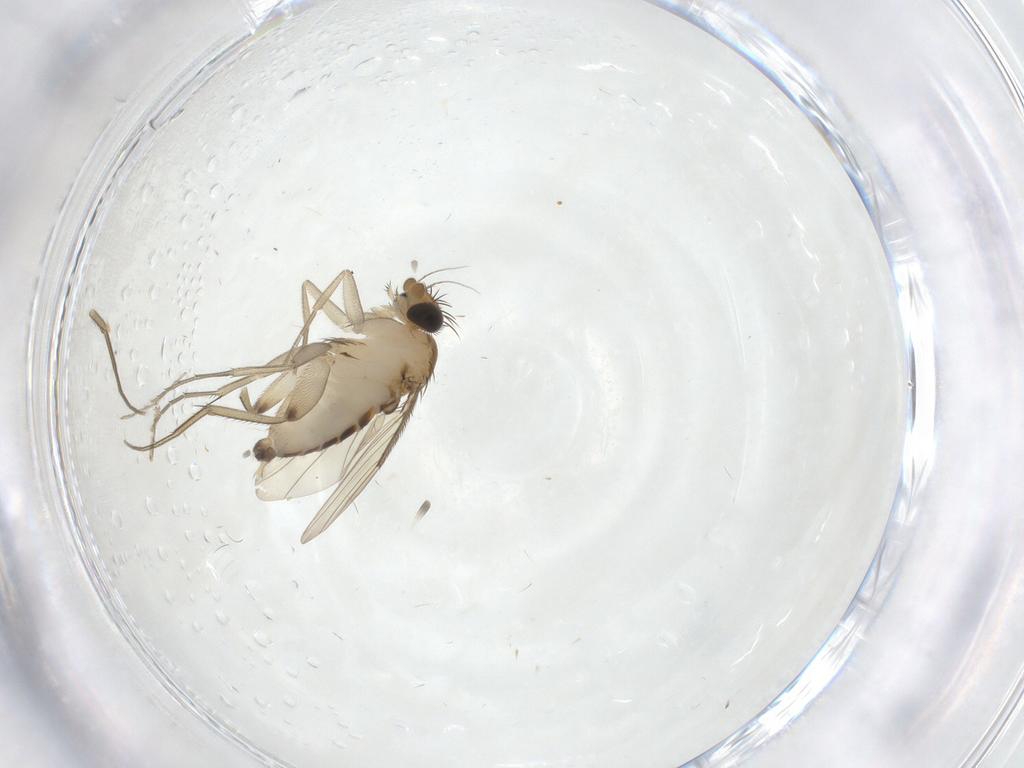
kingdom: Animalia
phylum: Arthropoda
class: Insecta
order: Diptera
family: Phoridae
